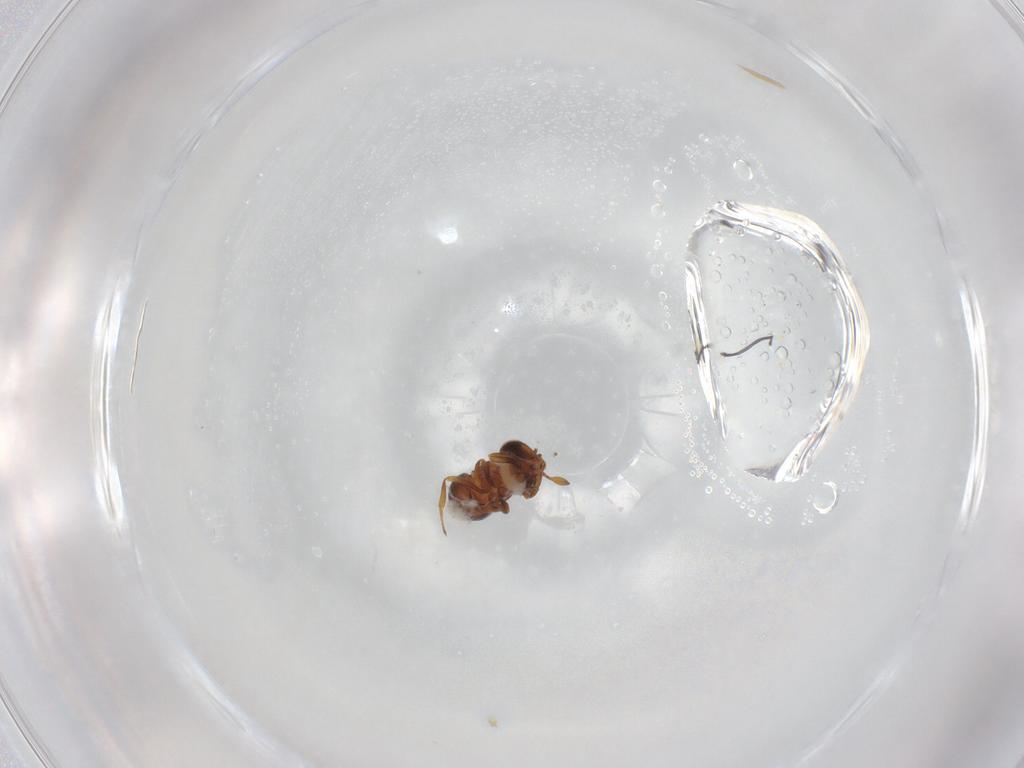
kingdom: Animalia
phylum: Arthropoda
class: Insecta
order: Hymenoptera
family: Scelionidae
